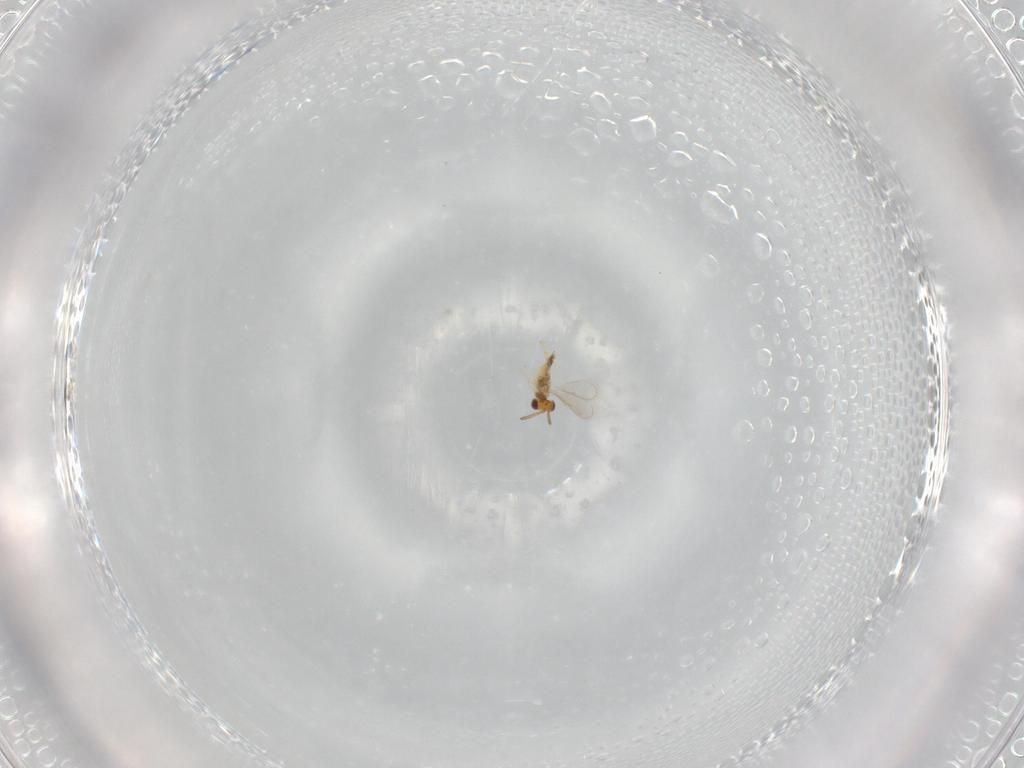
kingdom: Animalia
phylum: Arthropoda
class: Insecta
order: Hymenoptera
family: Aphelinidae
